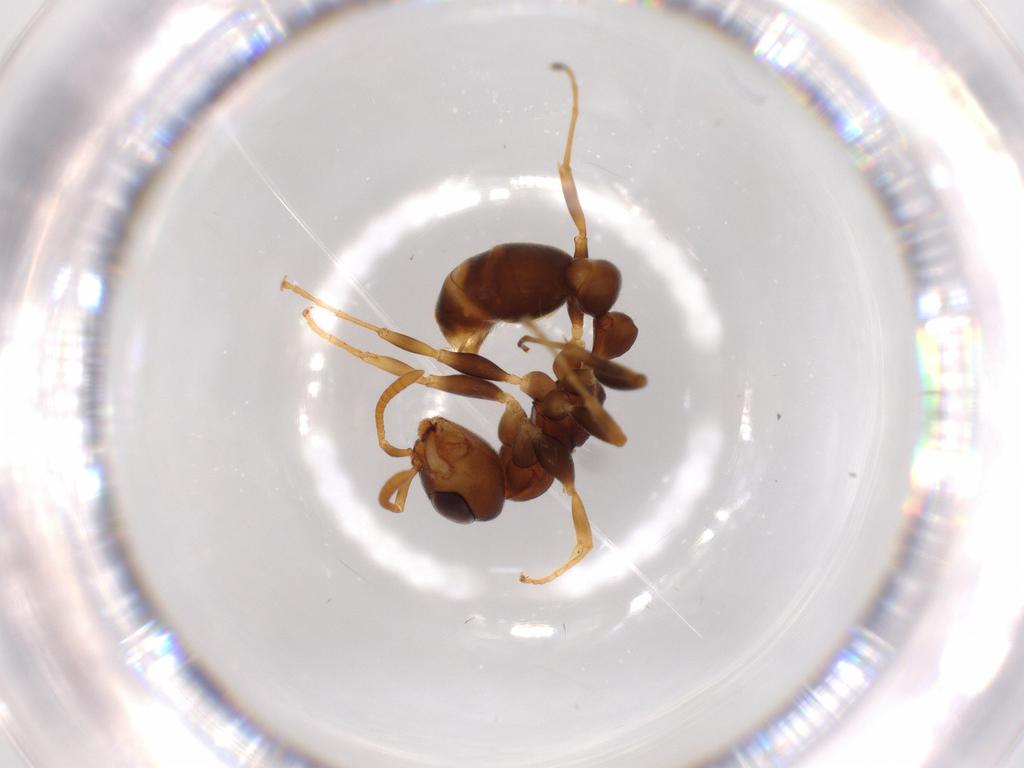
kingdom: Animalia
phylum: Arthropoda
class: Insecta
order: Hymenoptera
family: Formicidae
